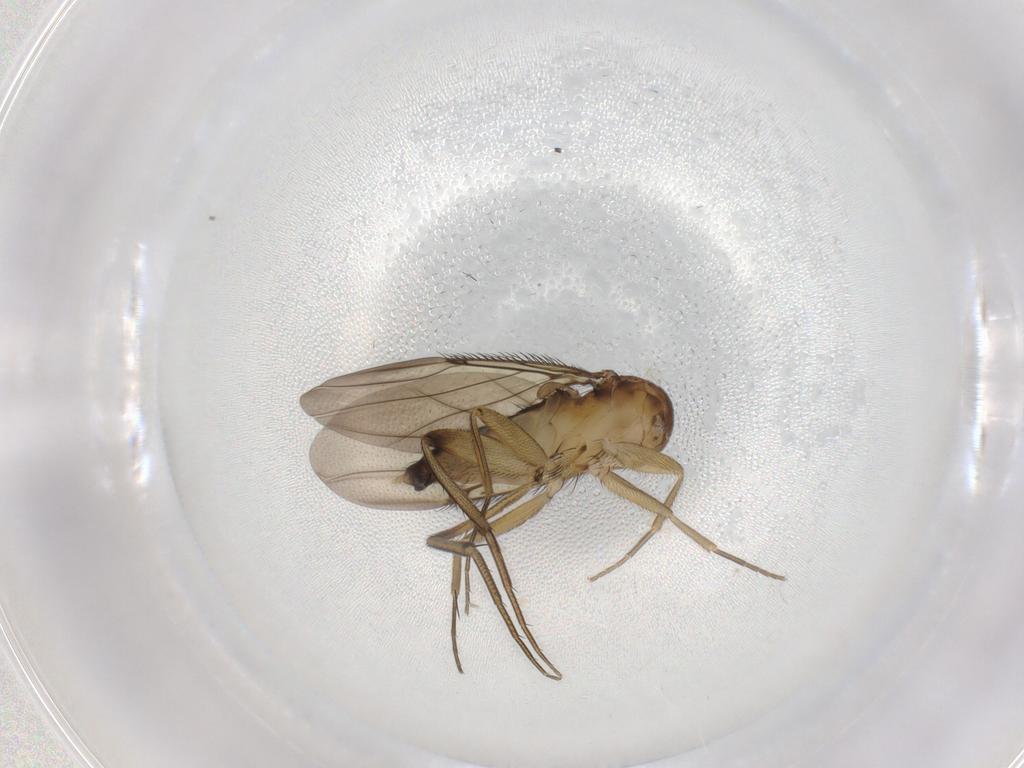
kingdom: Animalia
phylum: Arthropoda
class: Insecta
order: Diptera
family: Phoridae
